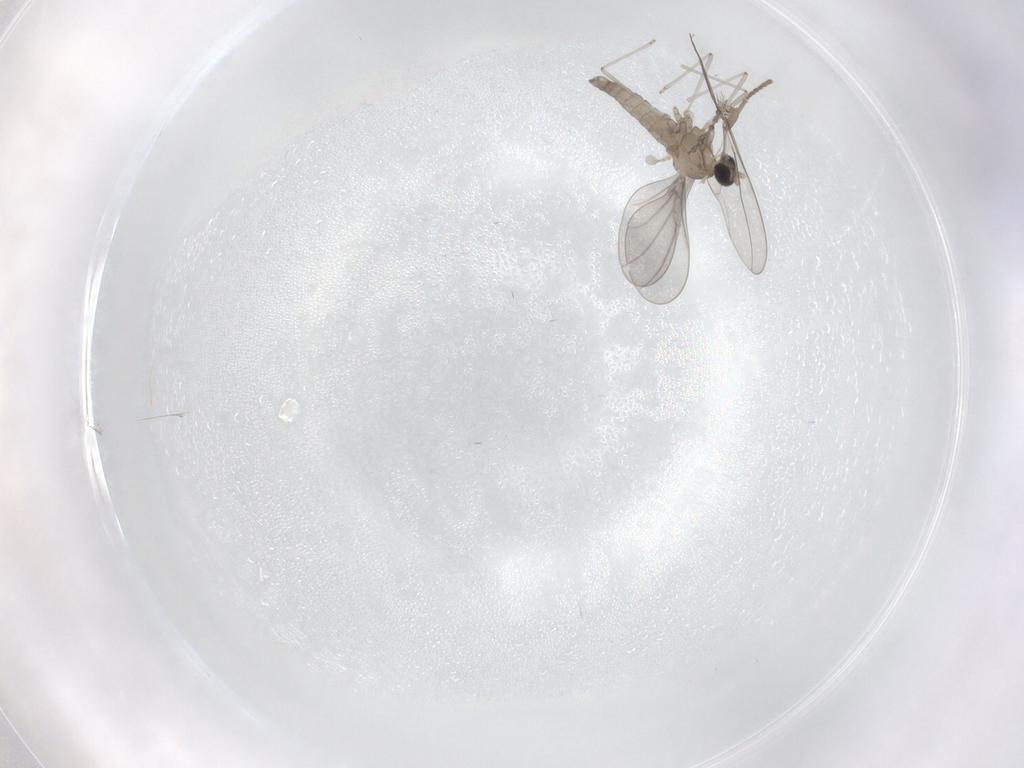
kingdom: Animalia
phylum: Arthropoda
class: Insecta
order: Diptera
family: Cecidomyiidae
